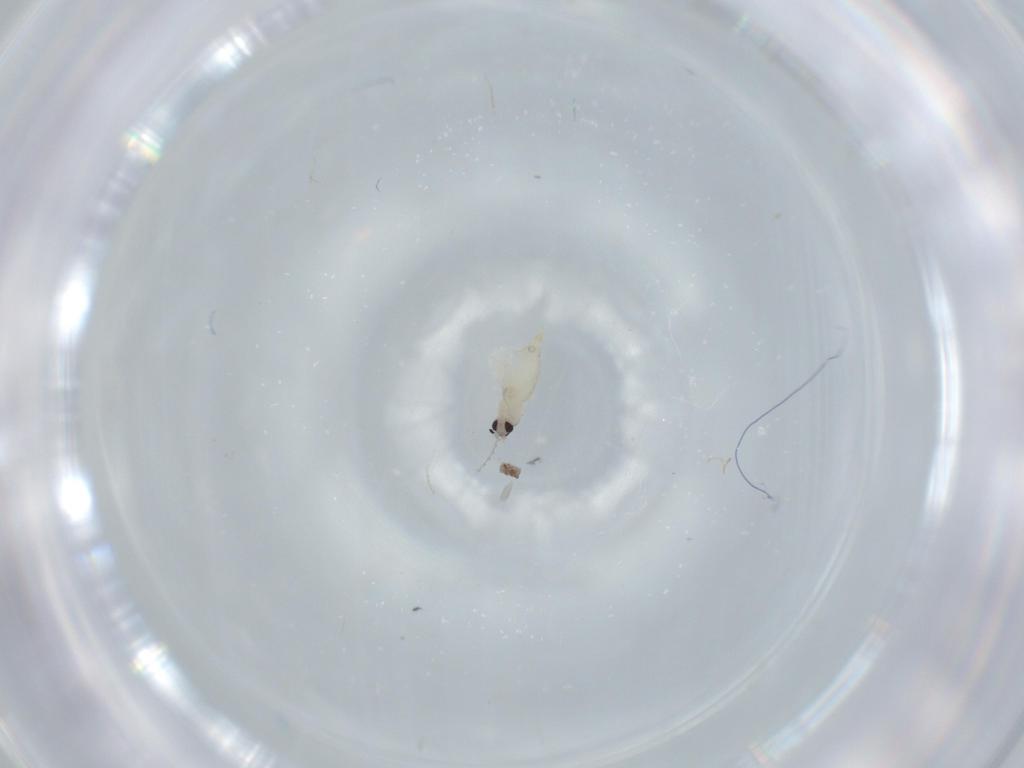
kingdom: Animalia
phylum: Arthropoda
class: Insecta
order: Diptera
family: Cecidomyiidae
